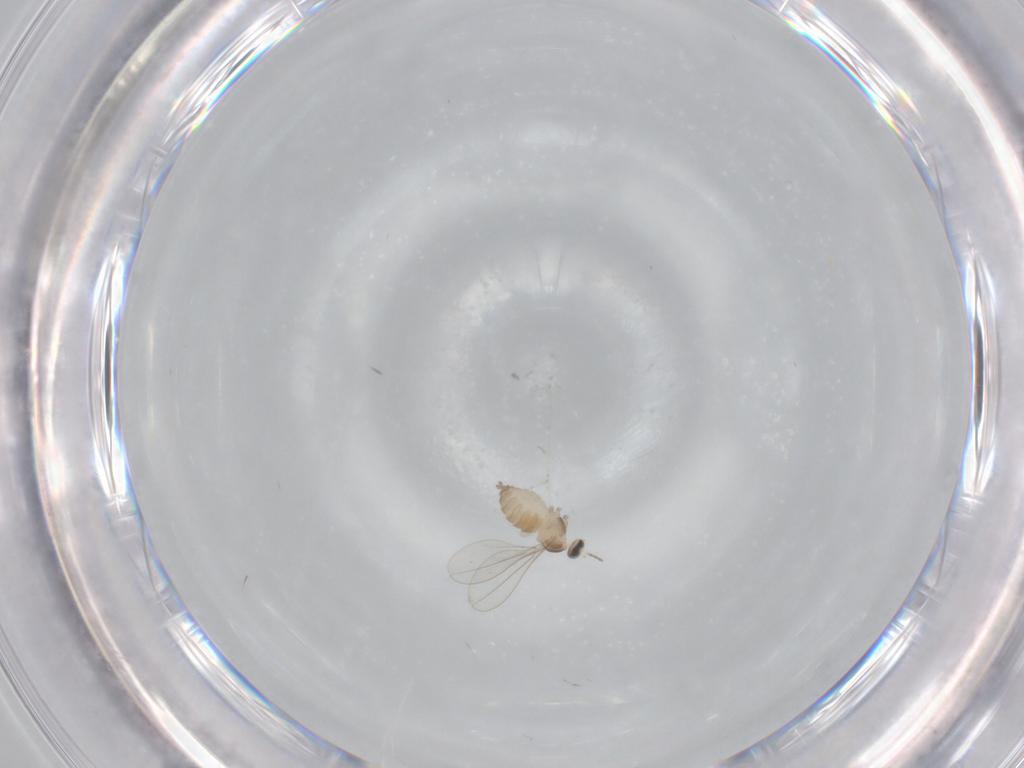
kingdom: Animalia
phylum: Arthropoda
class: Insecta
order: Diptera
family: Cecidomyiidae
